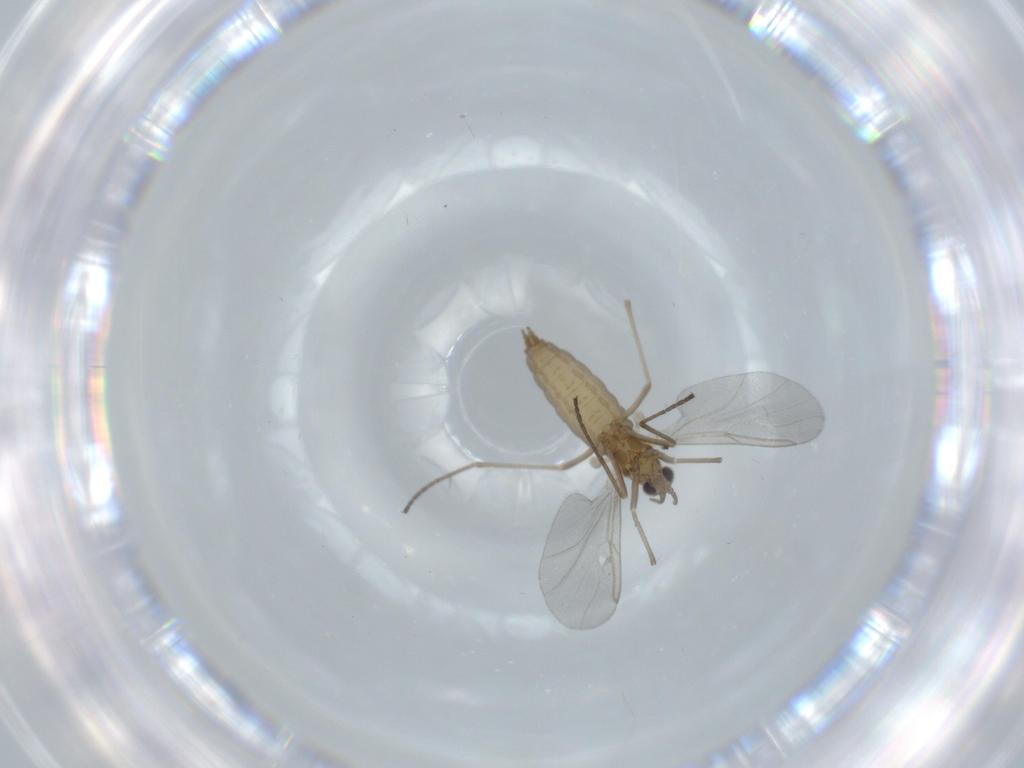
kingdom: Animalia
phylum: Arthropoda
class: Insecta
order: Diptera
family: Cecidomyiidae
